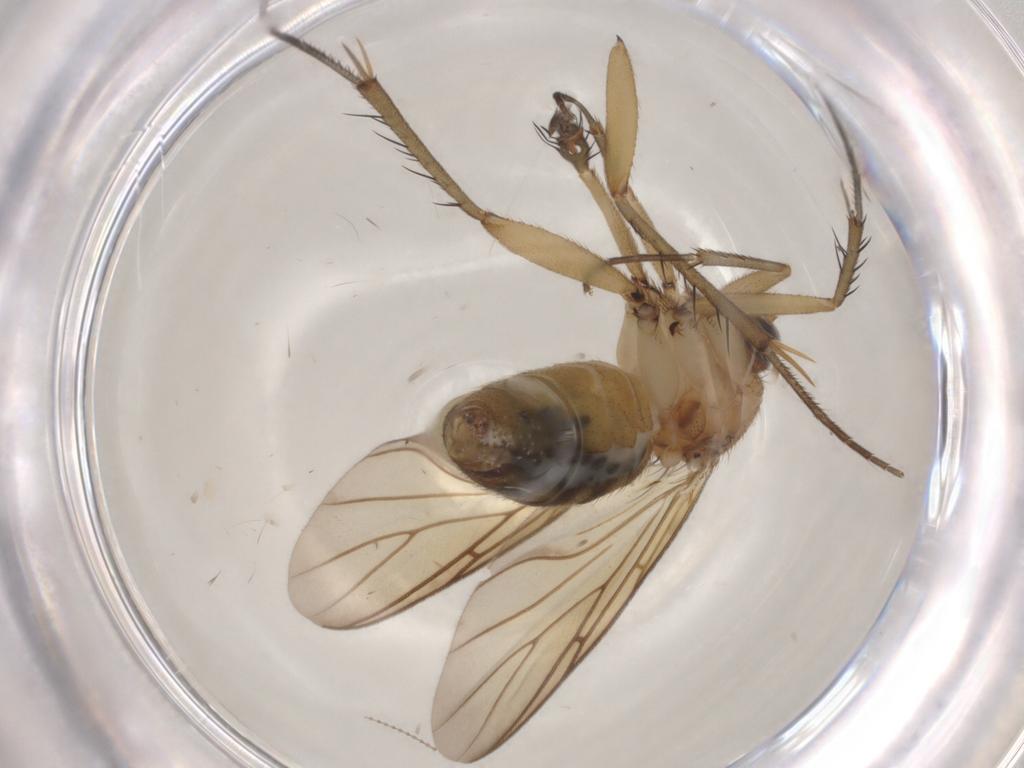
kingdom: Animalia
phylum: Arthropoda
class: Insecta
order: Diptera
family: Mycetophilidae
